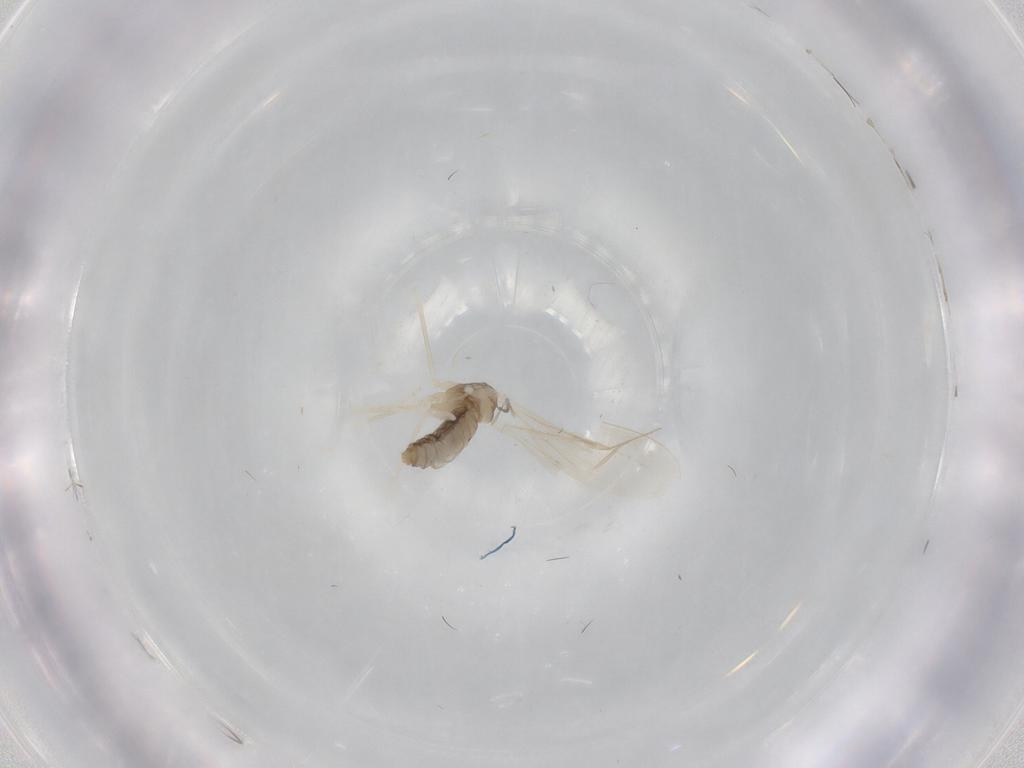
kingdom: Animalia
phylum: Arthropoda
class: Insecta
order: Diptera
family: Cecidomyiidae
